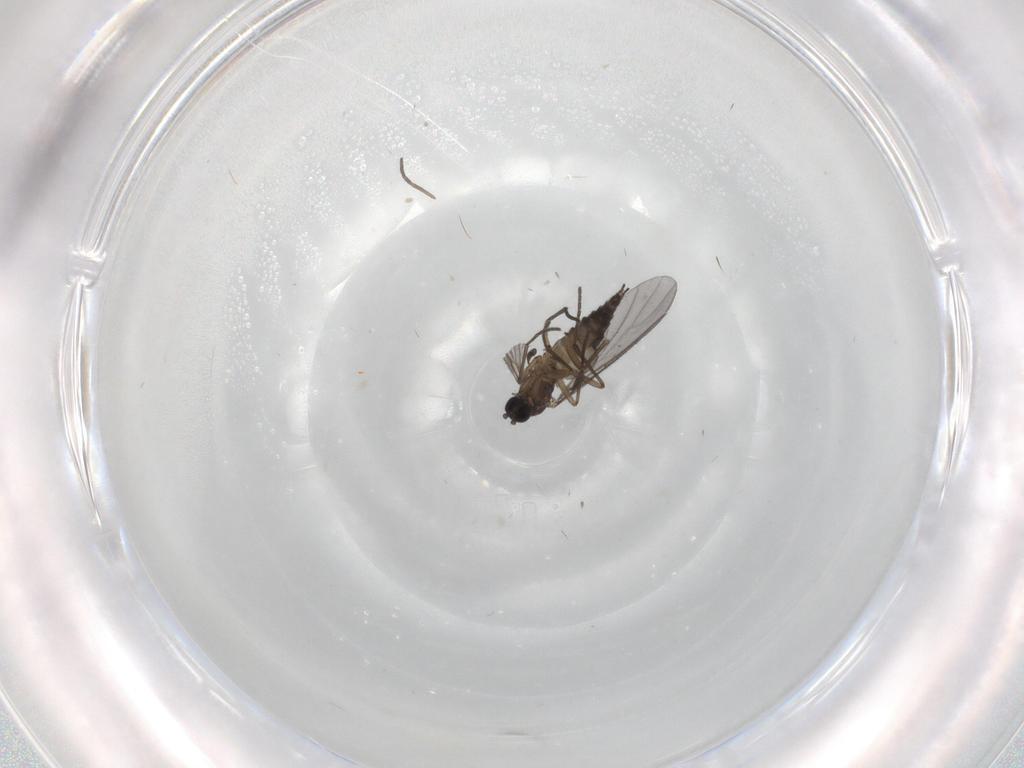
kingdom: Animalia
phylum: Arthropoda
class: Insecta
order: Diptera
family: Sciaridae
